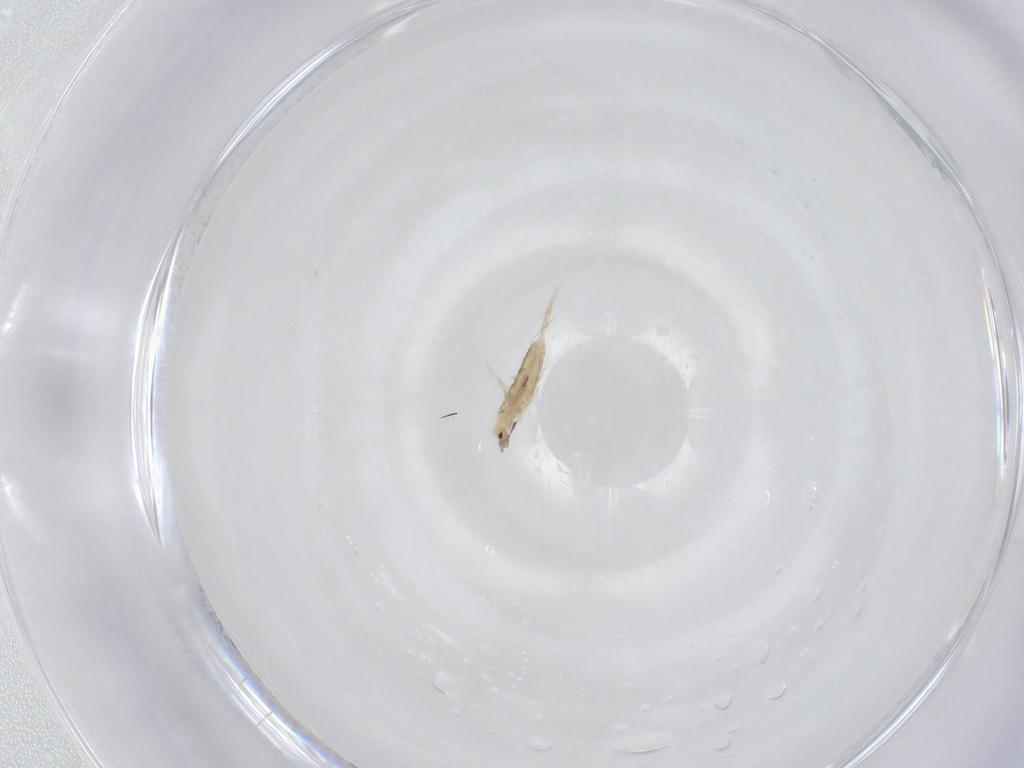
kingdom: Animalia
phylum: Arthropoda
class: Collembola
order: Entomobryomorpha
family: Entomobryidae
